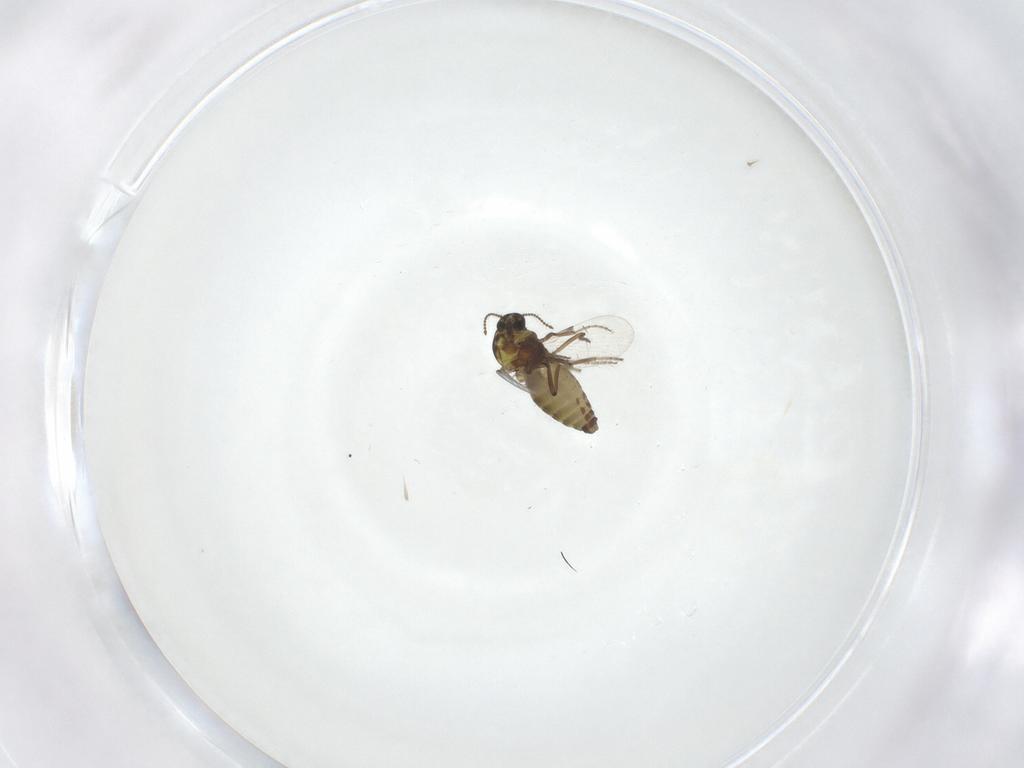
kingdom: Animalia
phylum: Arthropoda
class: Insecta
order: Diptera
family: Ceratopogonidae
